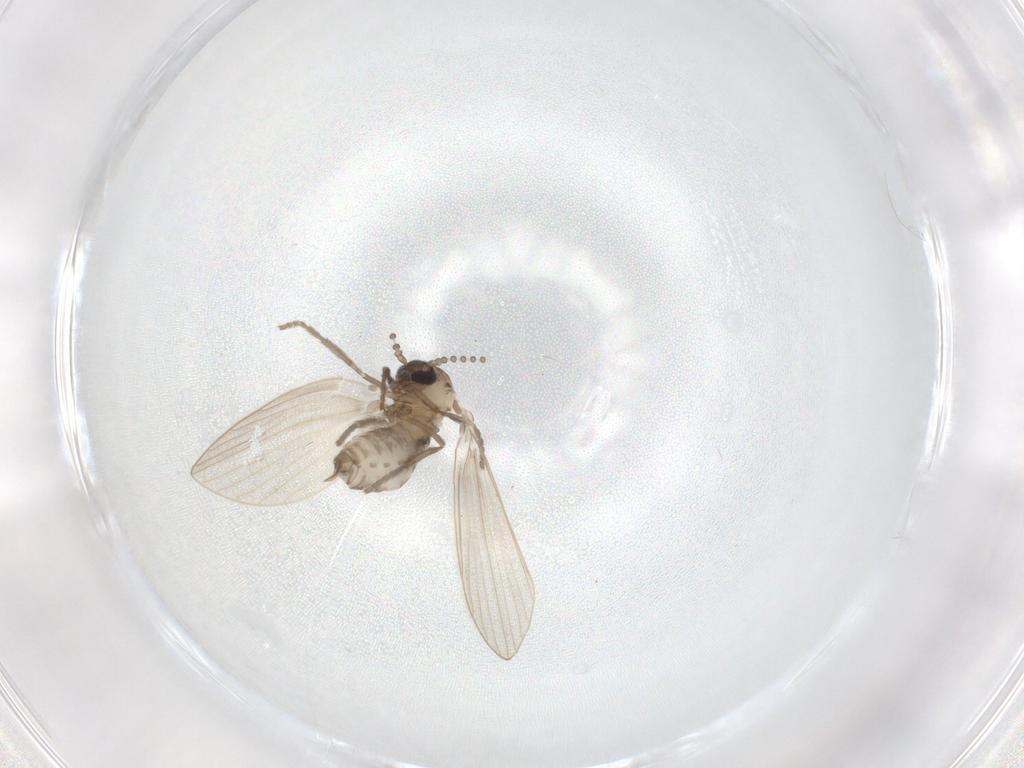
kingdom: Animalia
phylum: Arthropoda
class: Insecta
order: Diptera
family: Psychodidae
